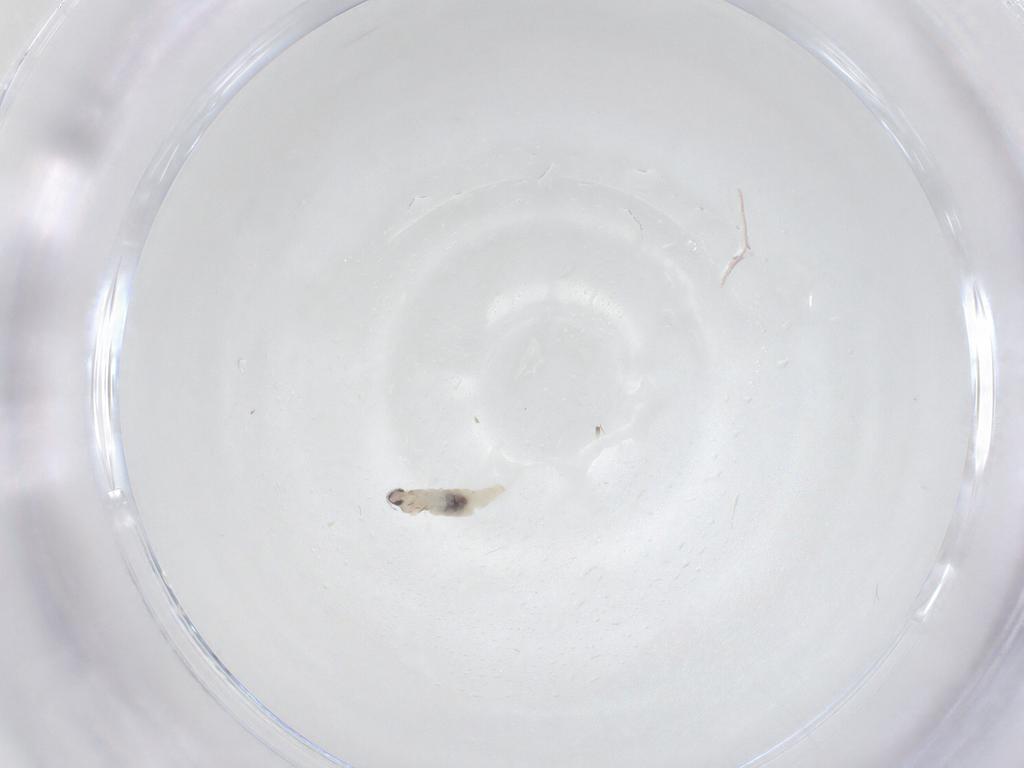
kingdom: Animalia
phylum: Arthropoda
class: Insecta
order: Diptera
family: Cecidomyiidae
